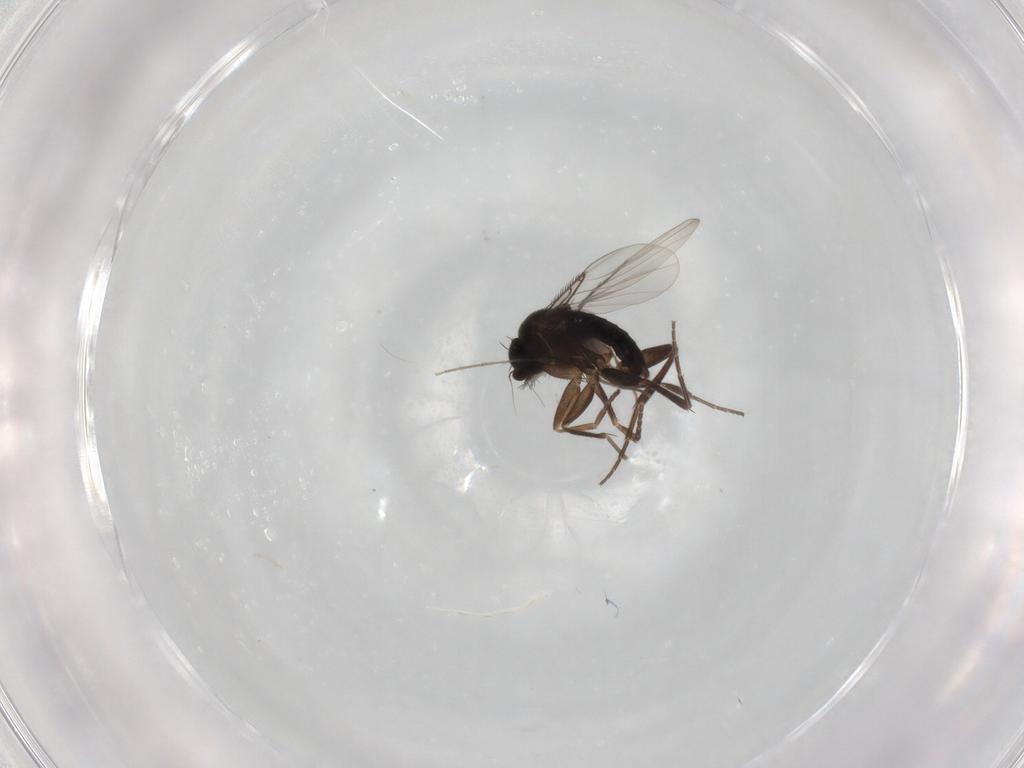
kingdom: Animalia
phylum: Arthropoda
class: Insecta
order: Diptera
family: Phoridae
